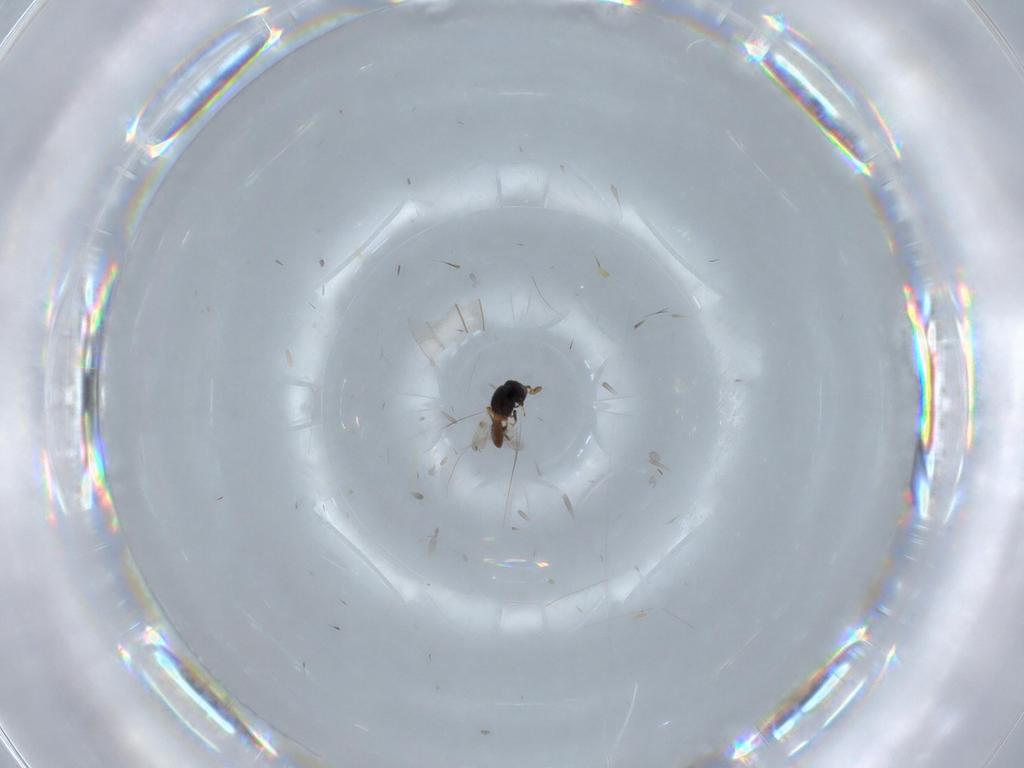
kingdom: Animalia
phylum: Arthropoda
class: Insecta
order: Hymenoptera
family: Scelionidae
